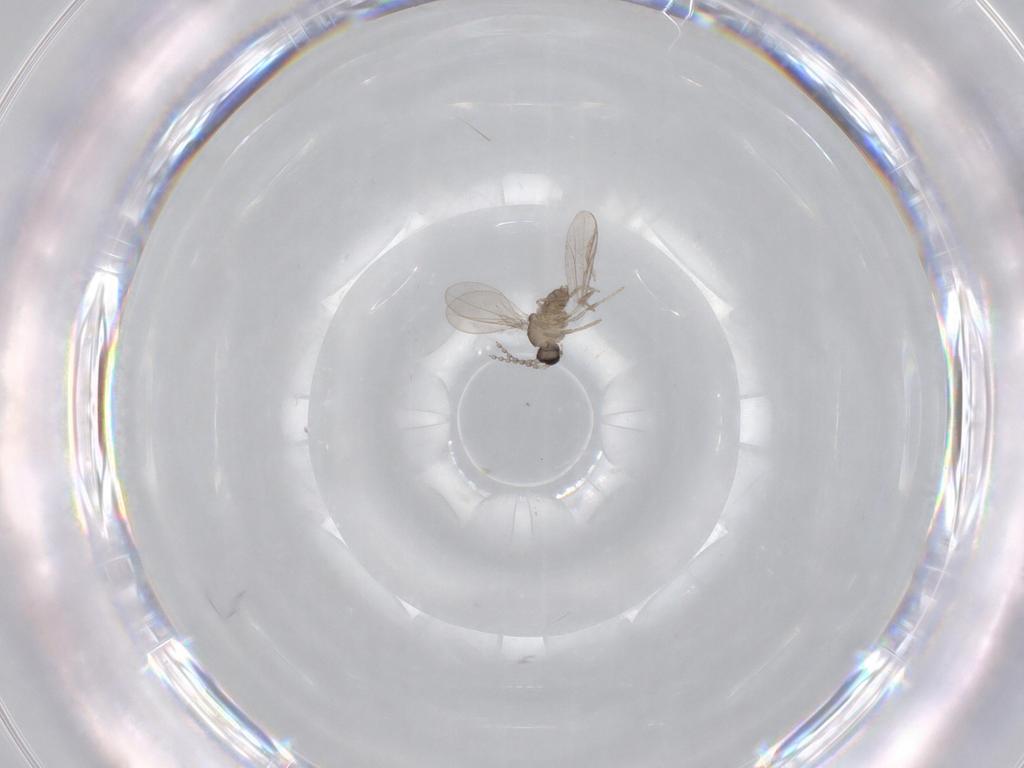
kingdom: Animalia
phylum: Arthropoda
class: Insecta
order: Diptera
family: Cecidomyiidae
